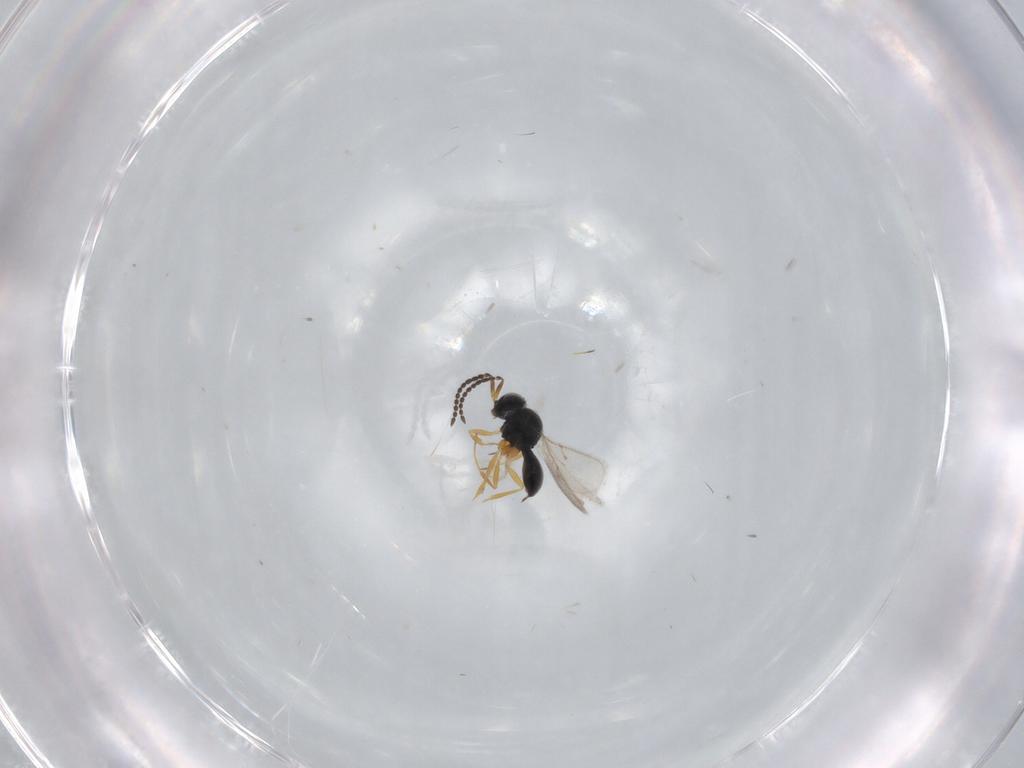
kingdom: Animalia
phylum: Arthropoda
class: Insecta
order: Hymenoptera
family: Scelionidae
